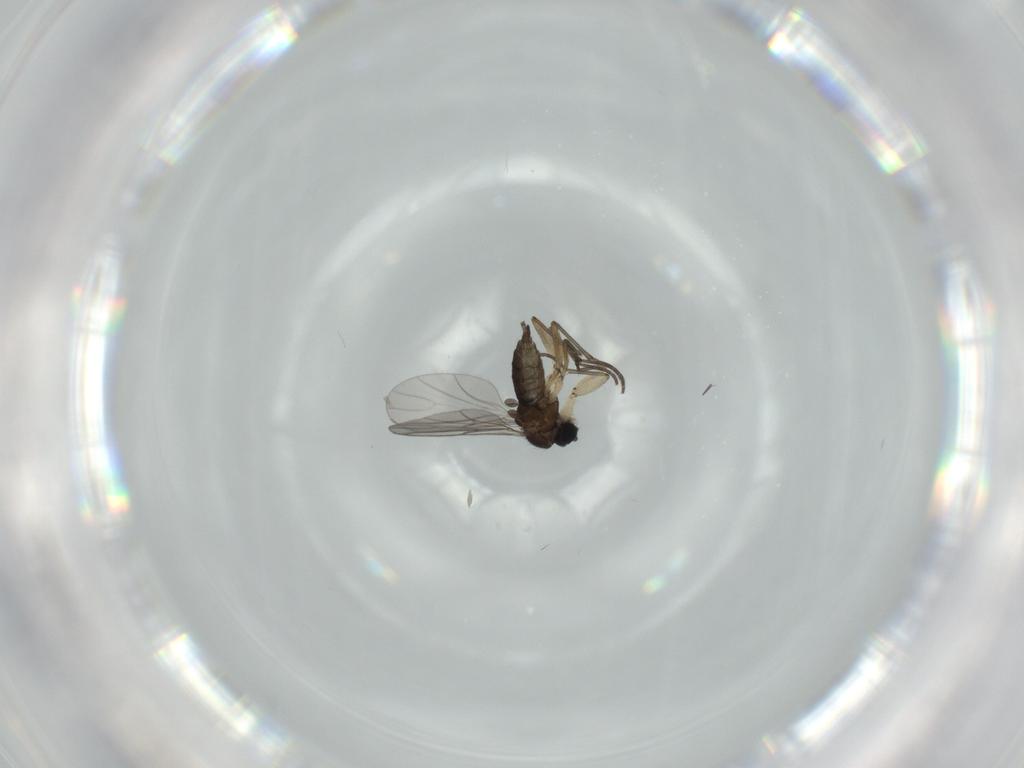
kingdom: Animalia
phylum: Arthropoda
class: Insecta
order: Diptera
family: Sciaridae
